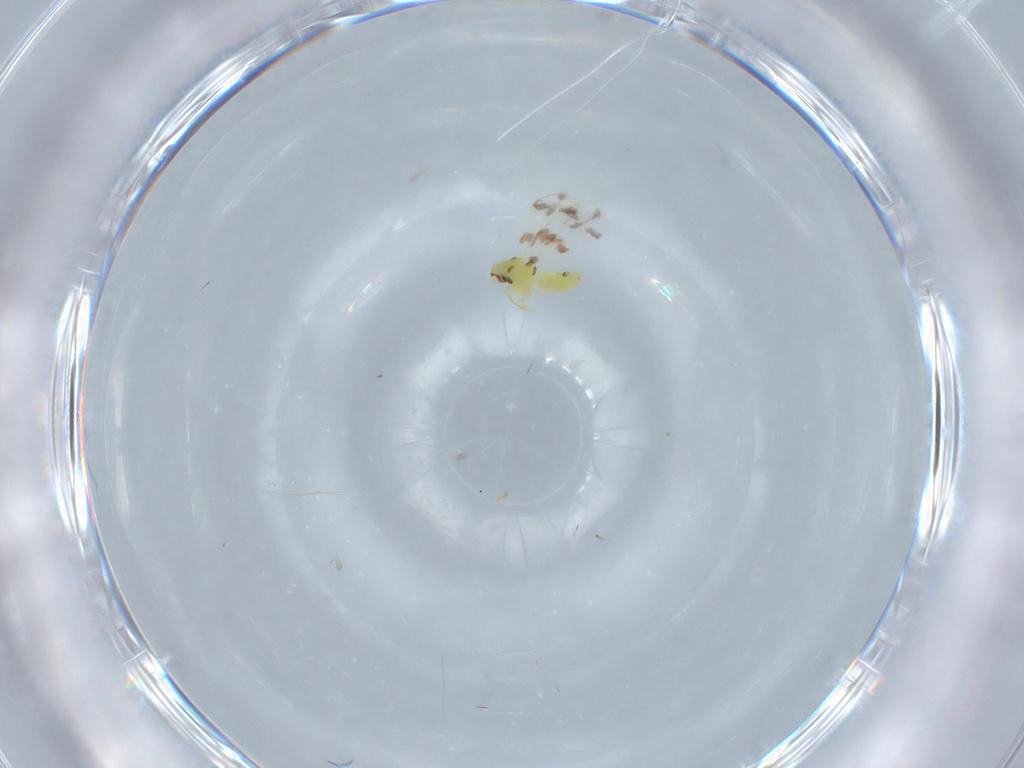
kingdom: Animalia
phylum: Arthropoda
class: Insecta
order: Hemiptera
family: Aleyrodidae
